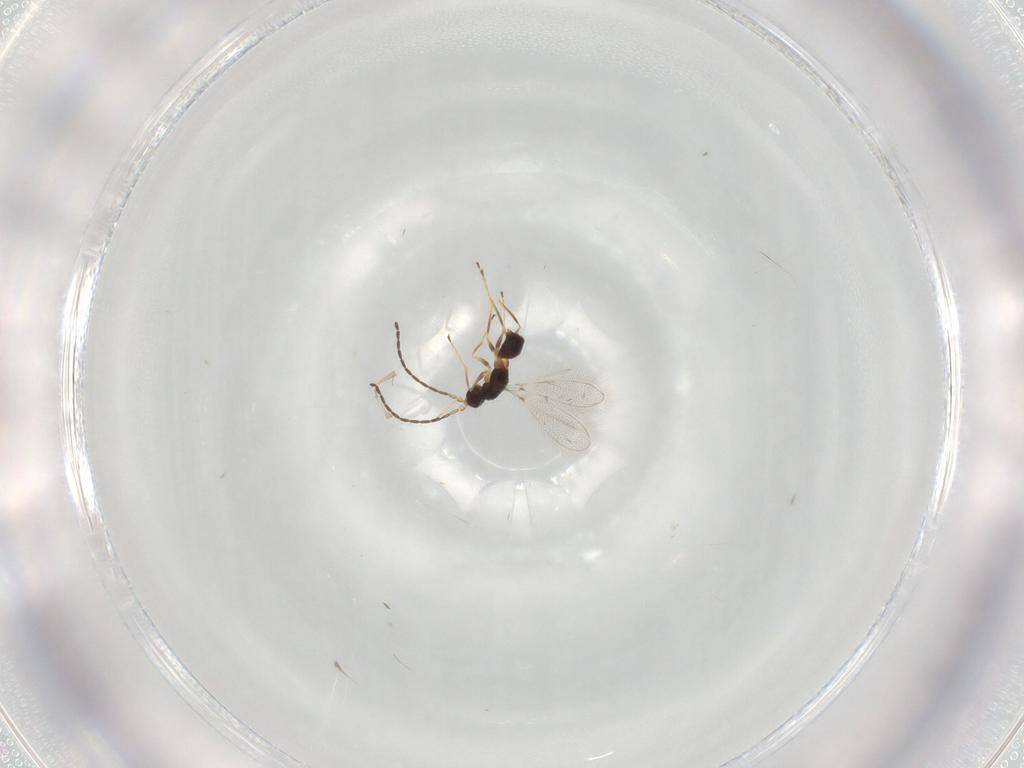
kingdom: Animalia
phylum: Arthropoda
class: Insecta
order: Hymenoptera
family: Mymaridae
